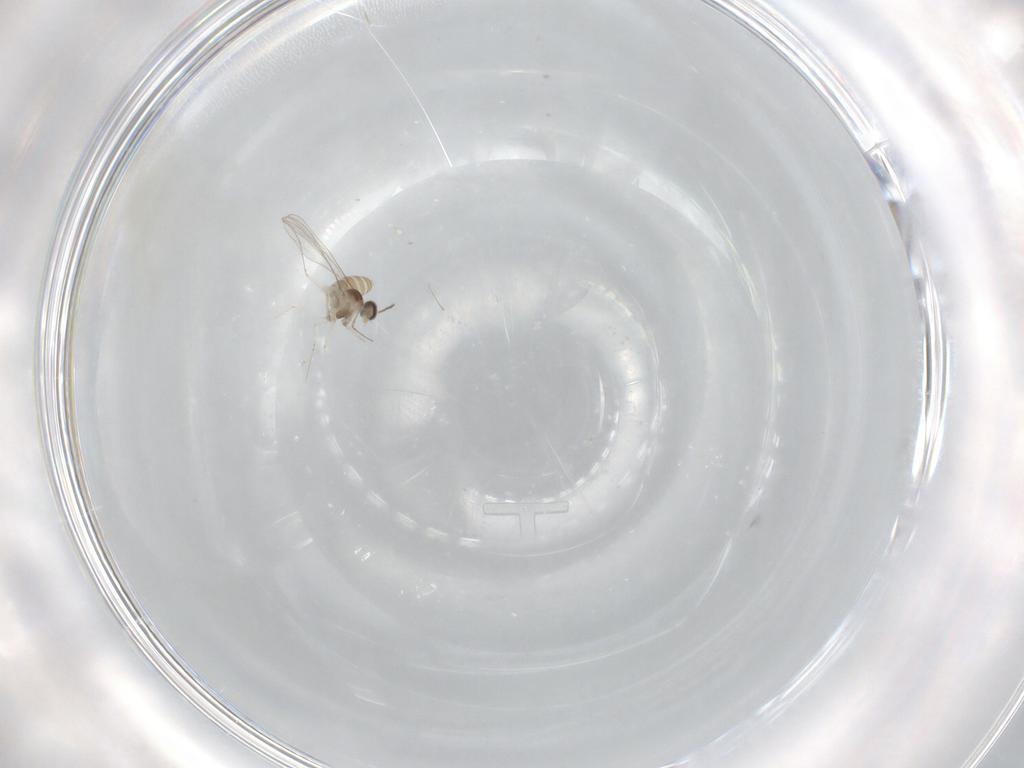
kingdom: Animalia
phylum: Arthropoda
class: Insecta
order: Diptera
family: Cecidomyiidae
